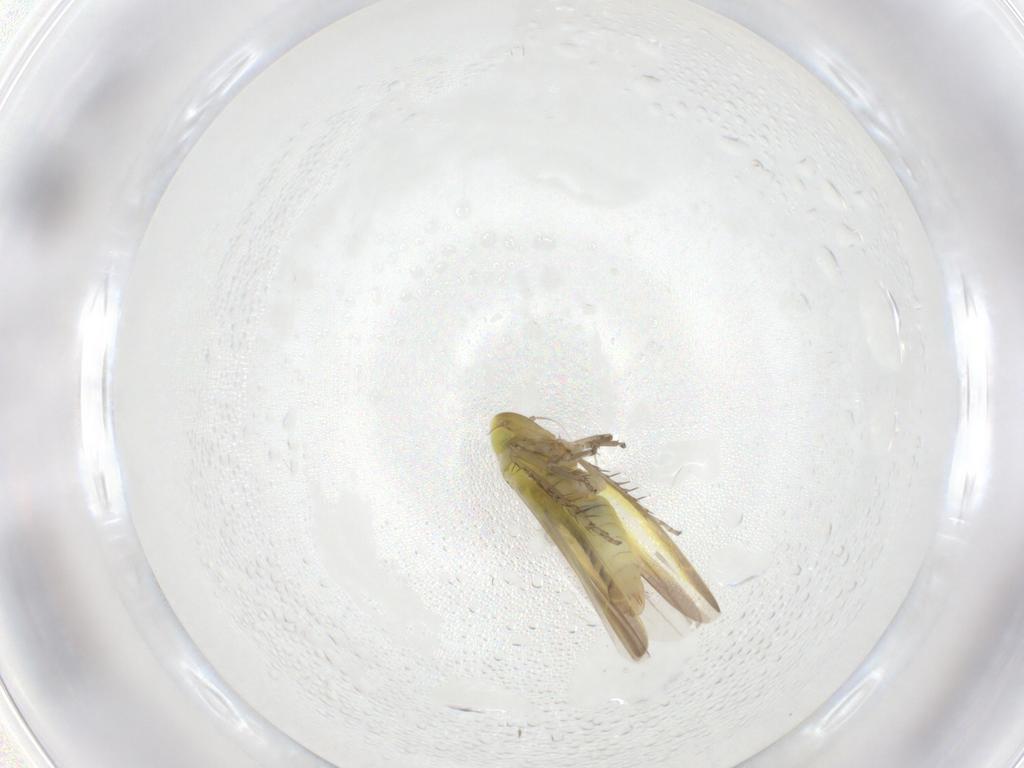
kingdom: Animalia
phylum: Arthropoda
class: Insecta
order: Hemiptera
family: Cicadellidae
